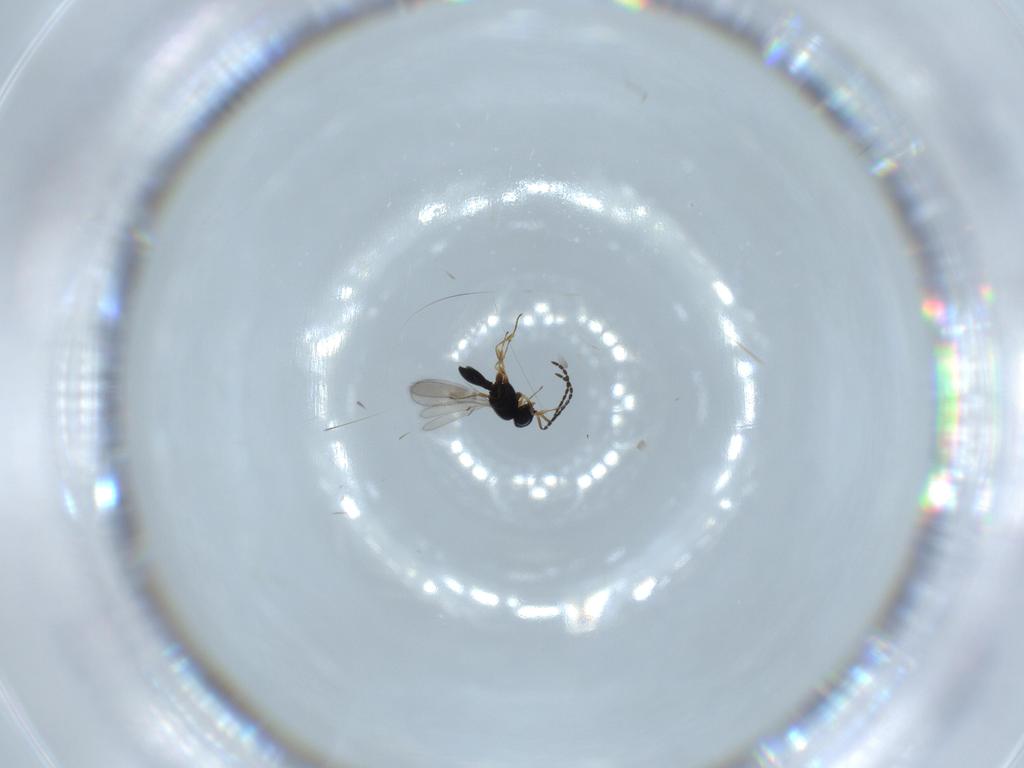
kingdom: Animalia
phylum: Arthropoda
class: Insecta
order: Hymenoptera
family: Scelionidae
